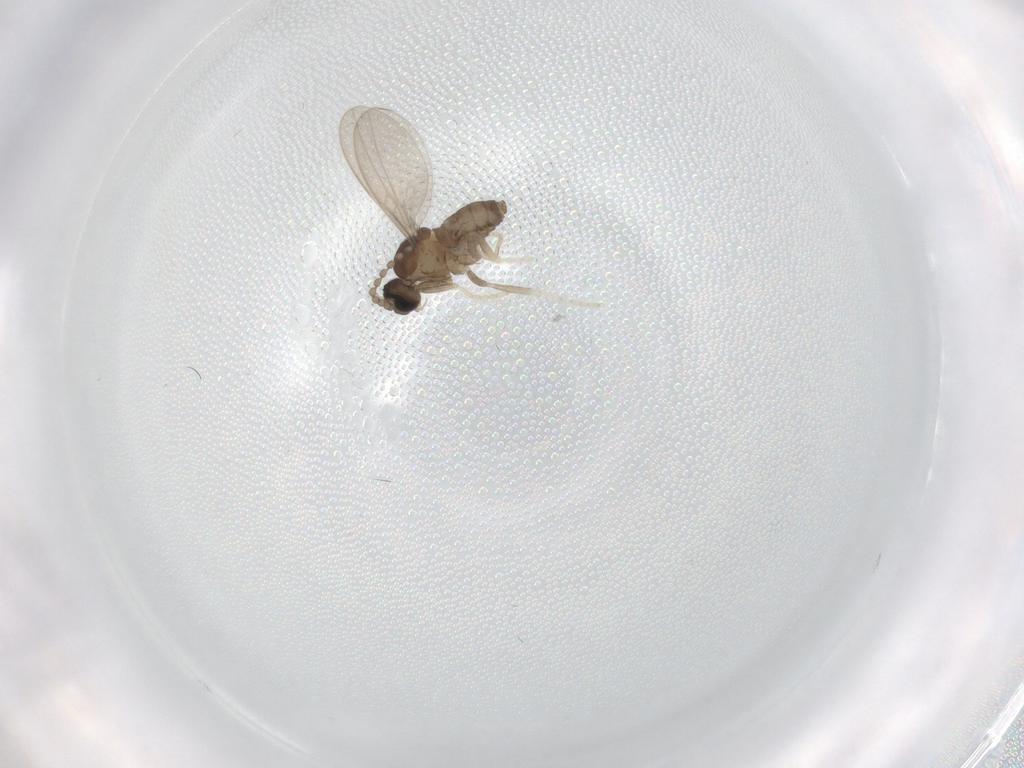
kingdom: Animalia
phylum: Arthropoda
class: Insecta
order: Diptera
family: Cecidomyiidae
